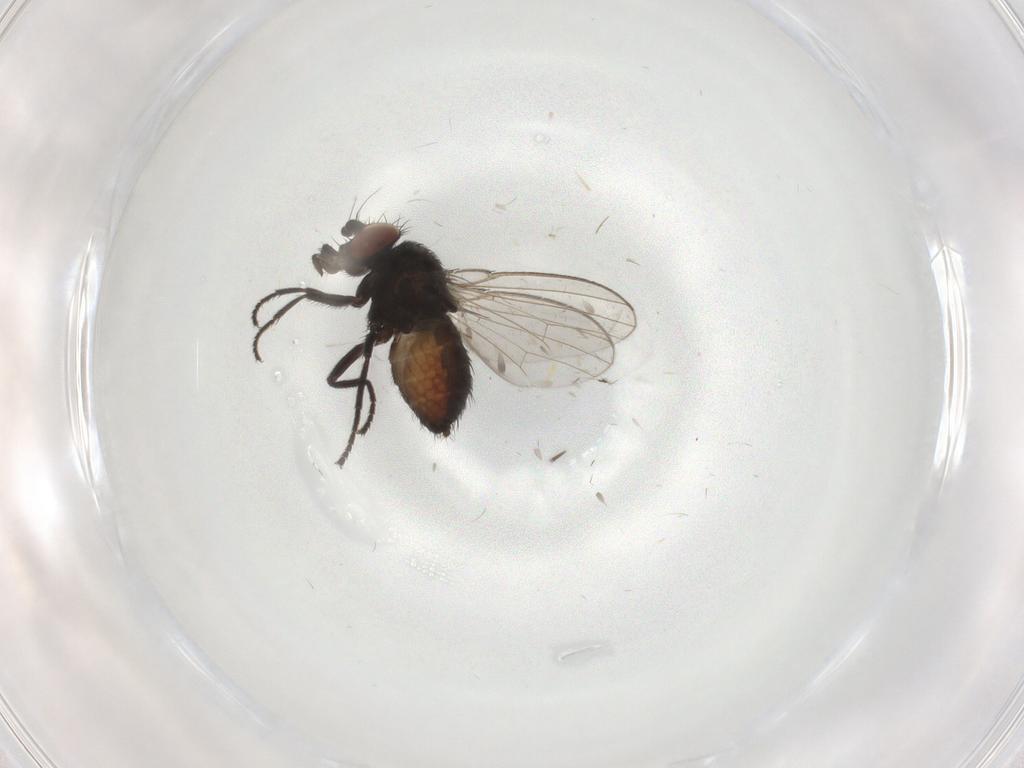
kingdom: Animalia
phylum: Arthropoda
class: Insecta
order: Diptera
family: Milichiidae
